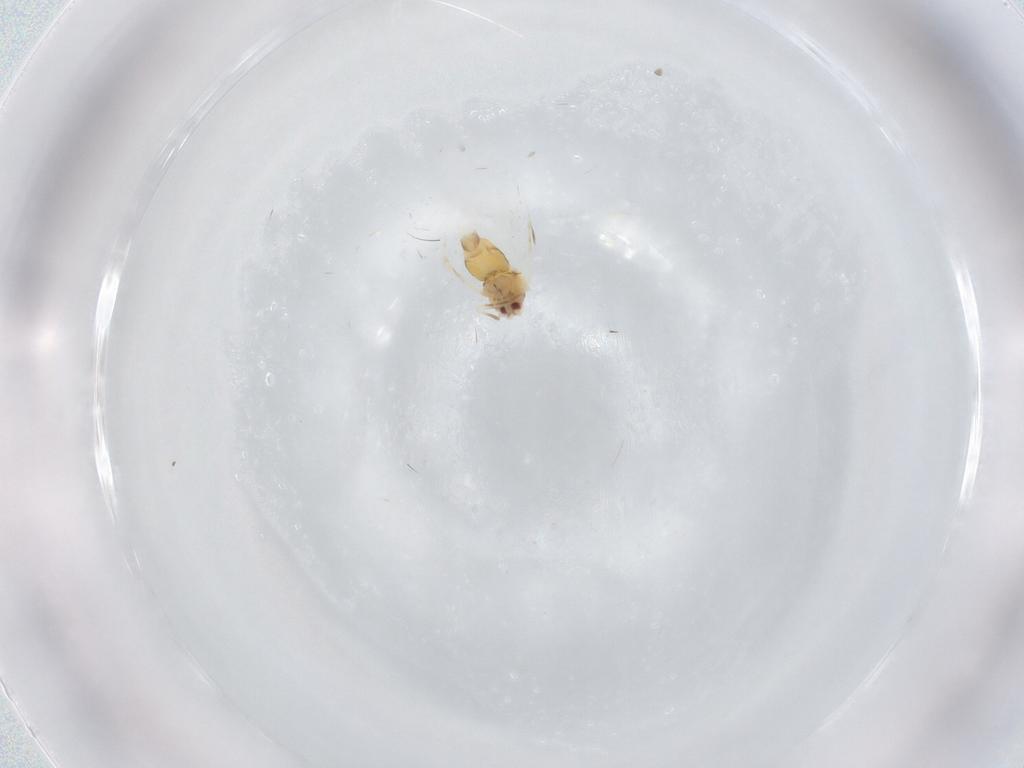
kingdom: Animalia
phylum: Arthropoda
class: Insecta
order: Hemiptera
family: Aleyrodidae
